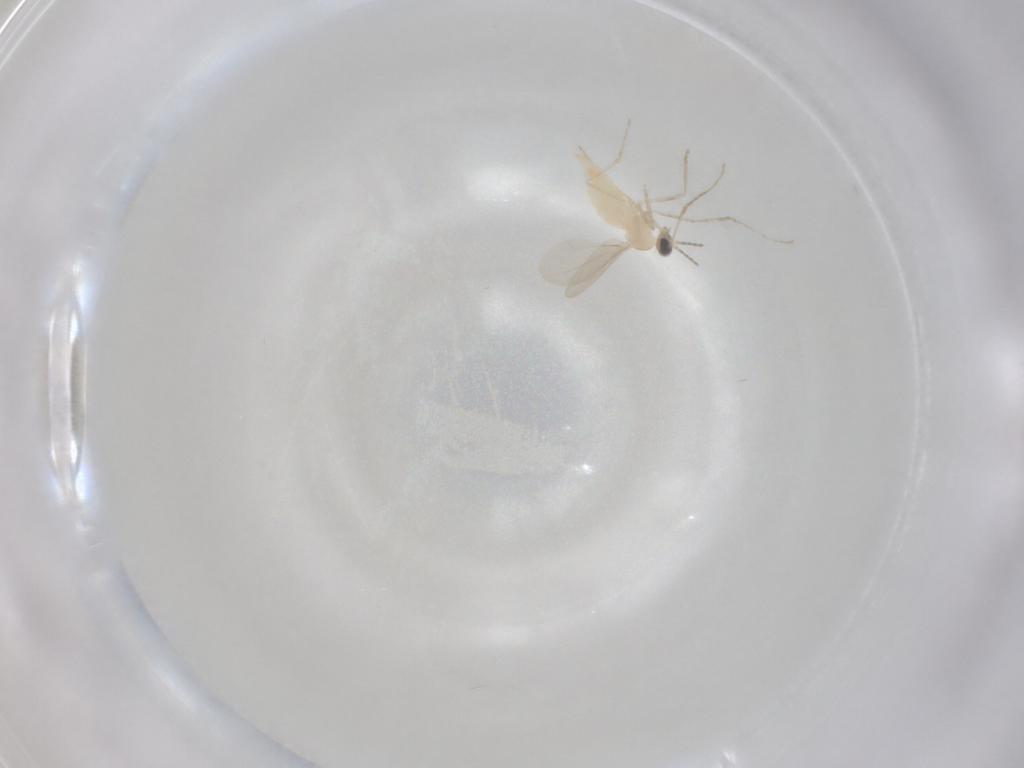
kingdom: Animalia
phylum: Arthropoda
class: Insecta
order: Diptera
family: Cecidomyiidae
